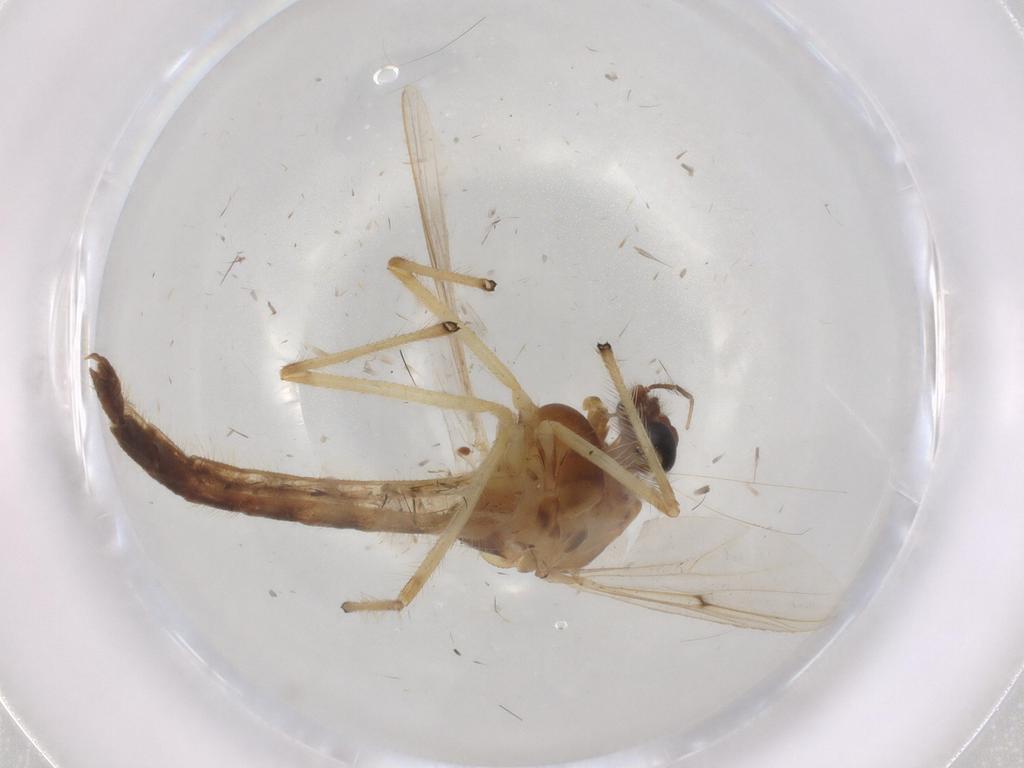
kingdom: Animalia
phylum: Arthropoda
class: Insecta
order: Diptera
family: Chironomidae
